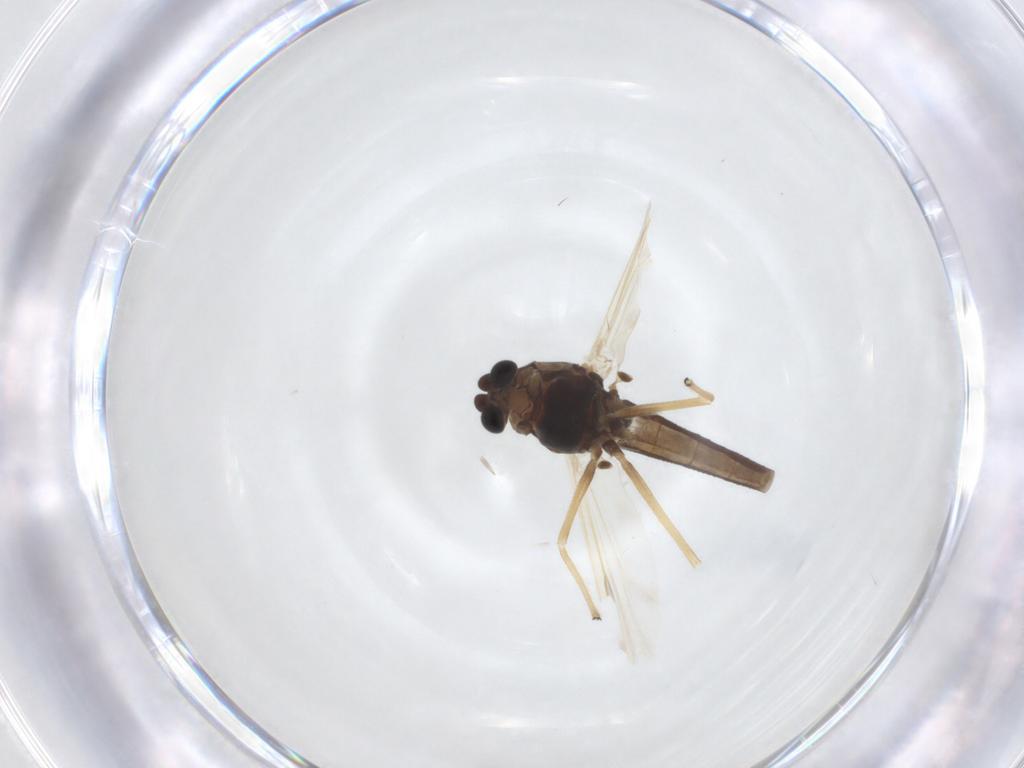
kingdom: Animalia
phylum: Arthropoda
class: Insecta
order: Diptera
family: Chironomidae
